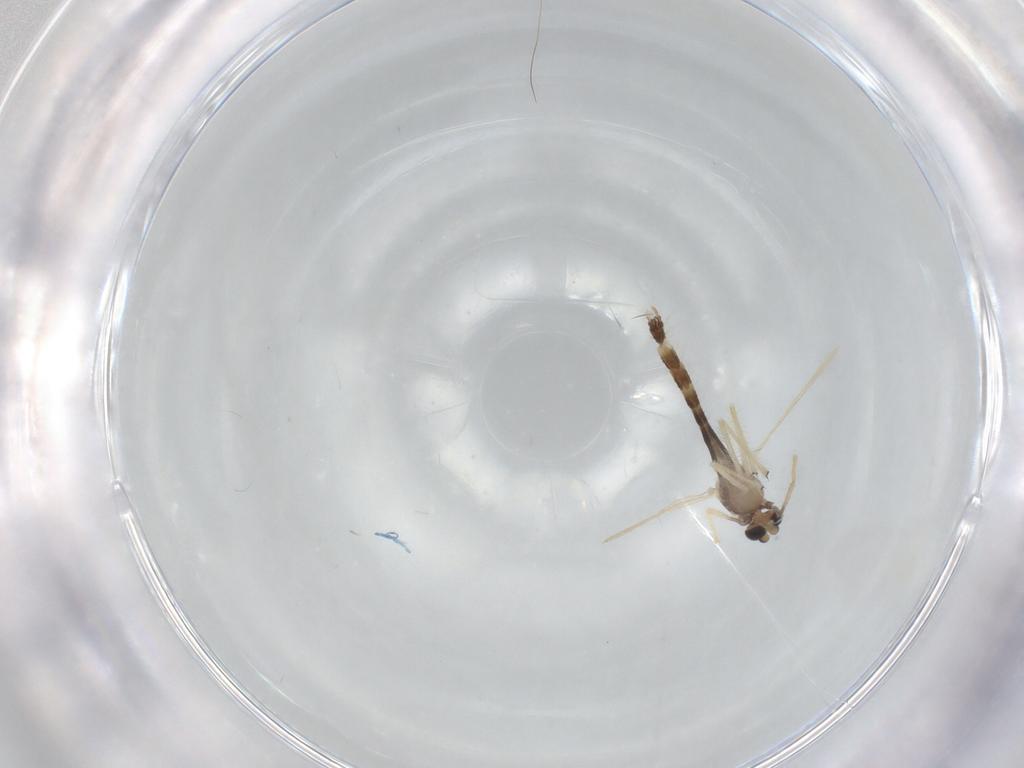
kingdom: Animalia
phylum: Arthropoda
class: Insecta
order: Diptera
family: Chironomidae
